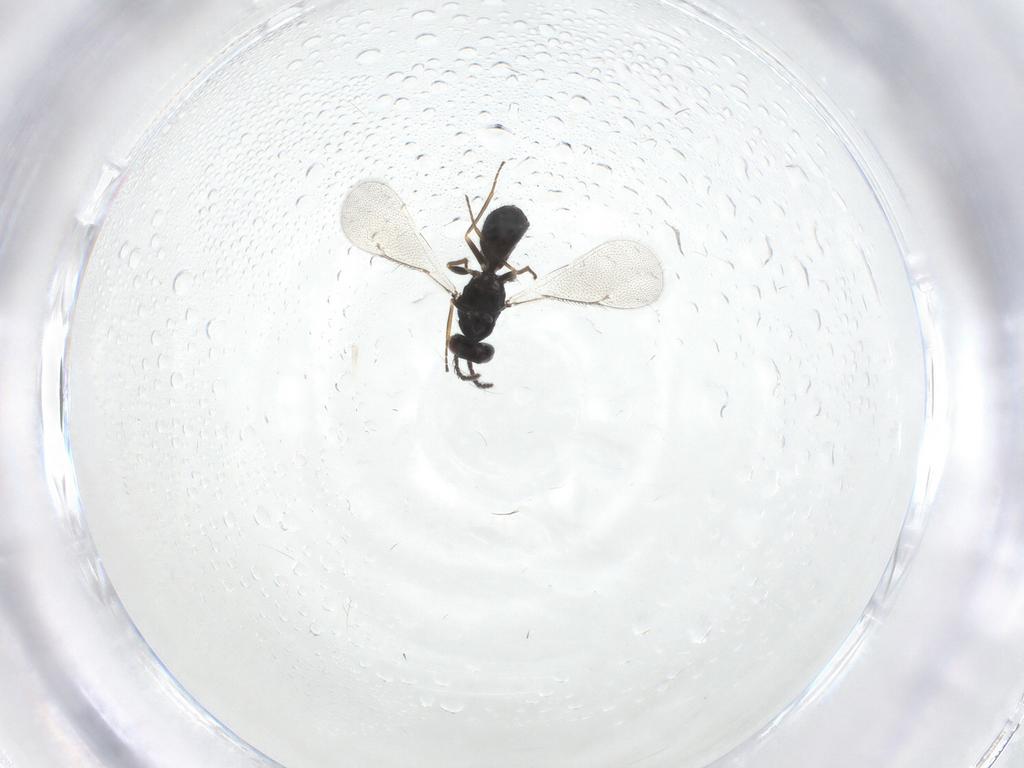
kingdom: Animalia
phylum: Arthropoda
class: Insecta
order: Hymenoptera
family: Eulophidae
